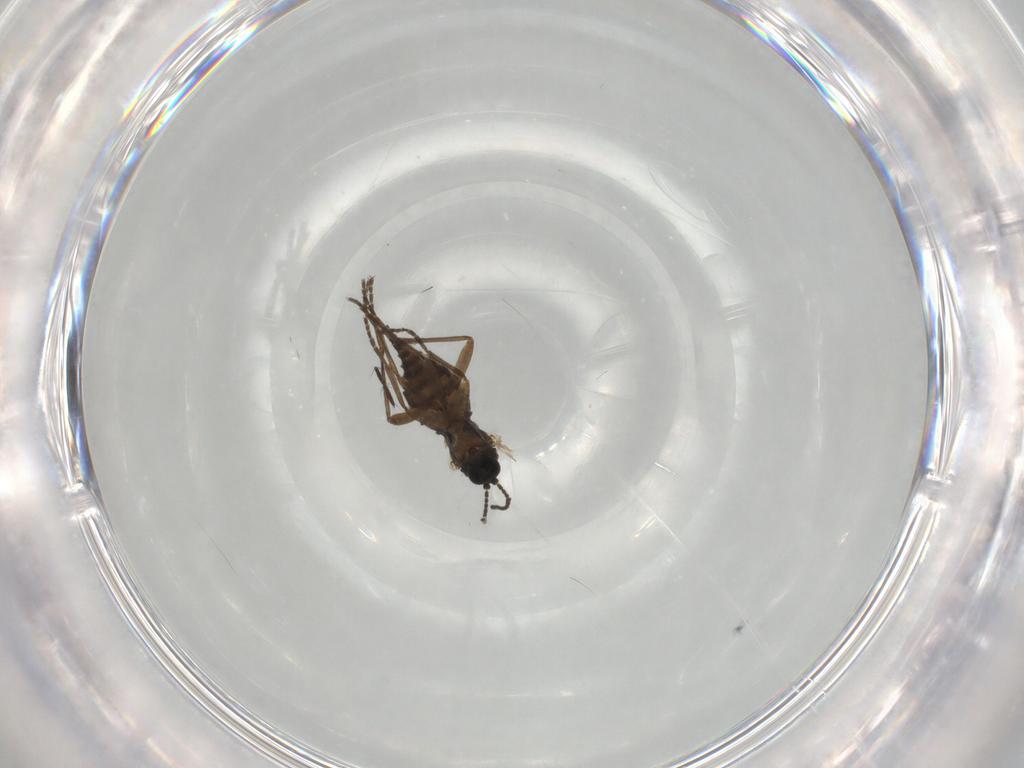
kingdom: Animalia
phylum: Arthropoda
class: Insecta
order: Diptera
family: Culicidae
